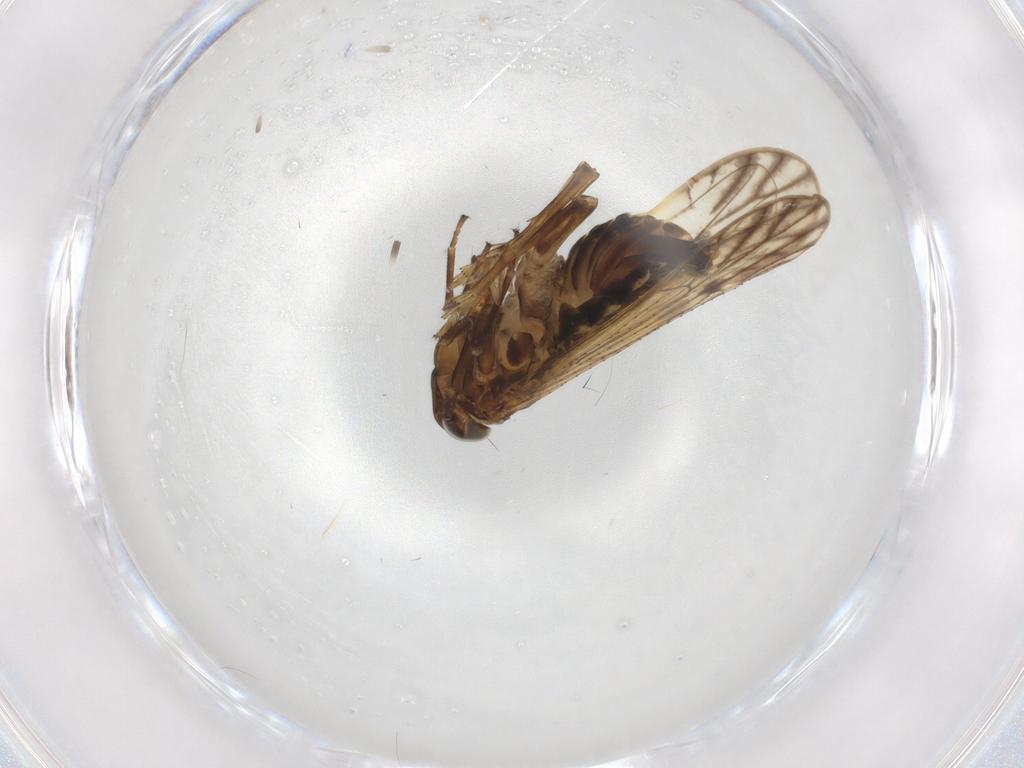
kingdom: Animalia
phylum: Arthropoda
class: Insecta
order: Hemiptera
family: Delphacidae
